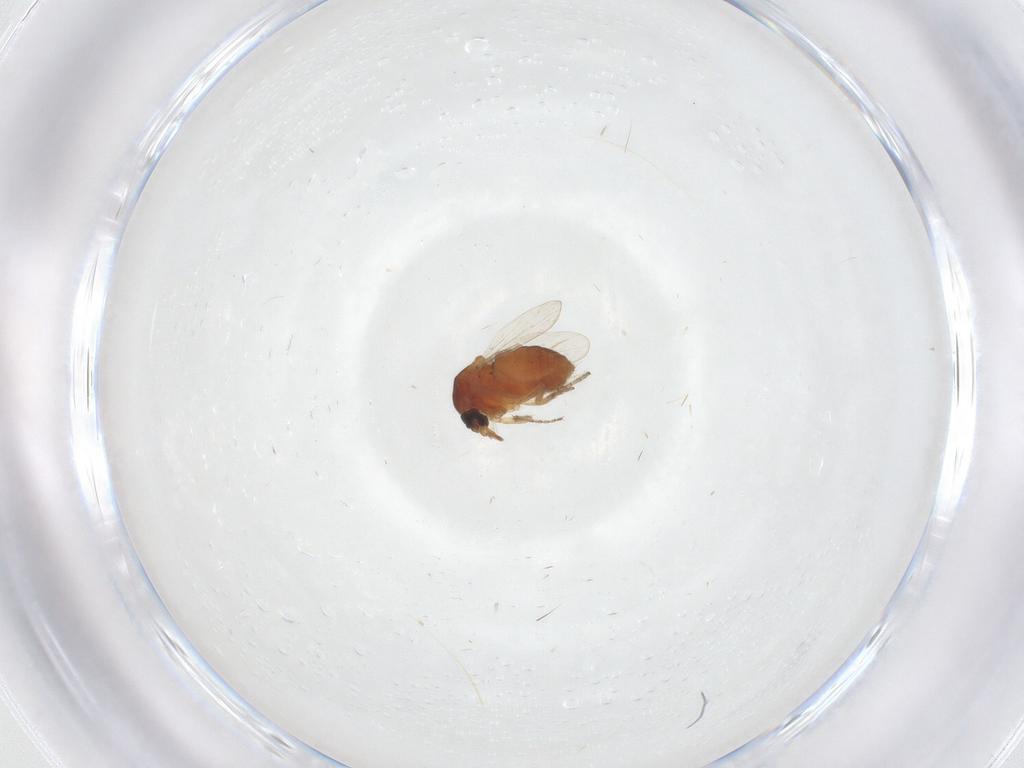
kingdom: Animalia
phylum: Arthropoda
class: Insecta
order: Diptera
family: Ceratopogonidae
